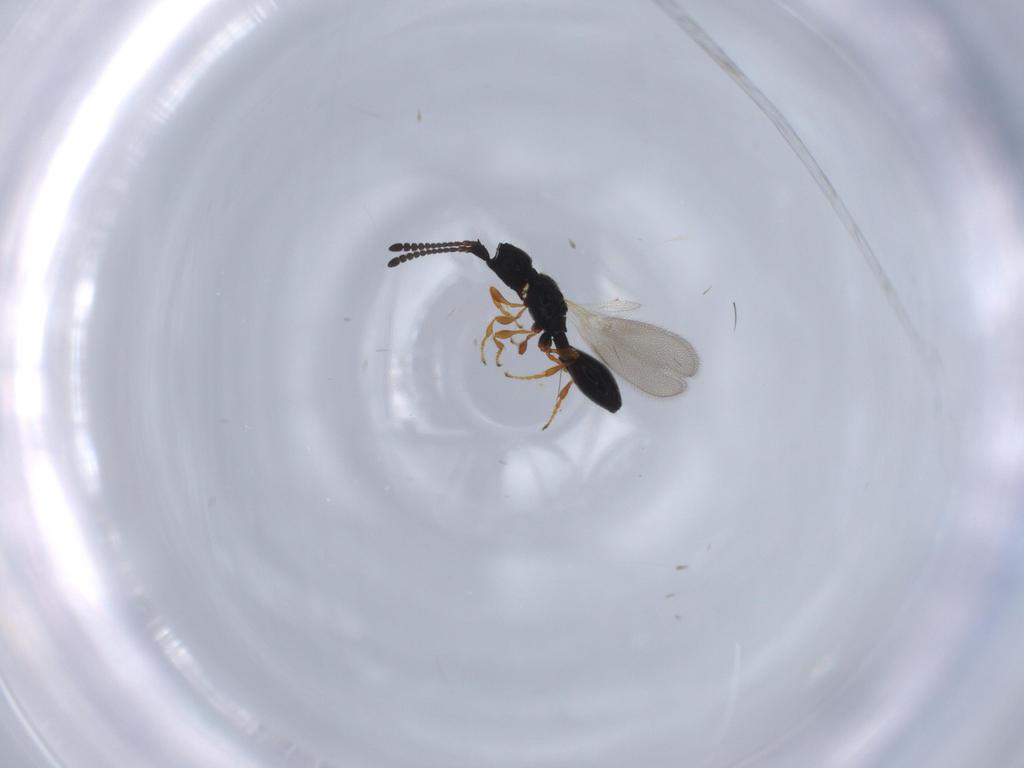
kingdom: Animalia
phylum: Arthropoda
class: Insecta
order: Hymenoptera
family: Diapriidae
